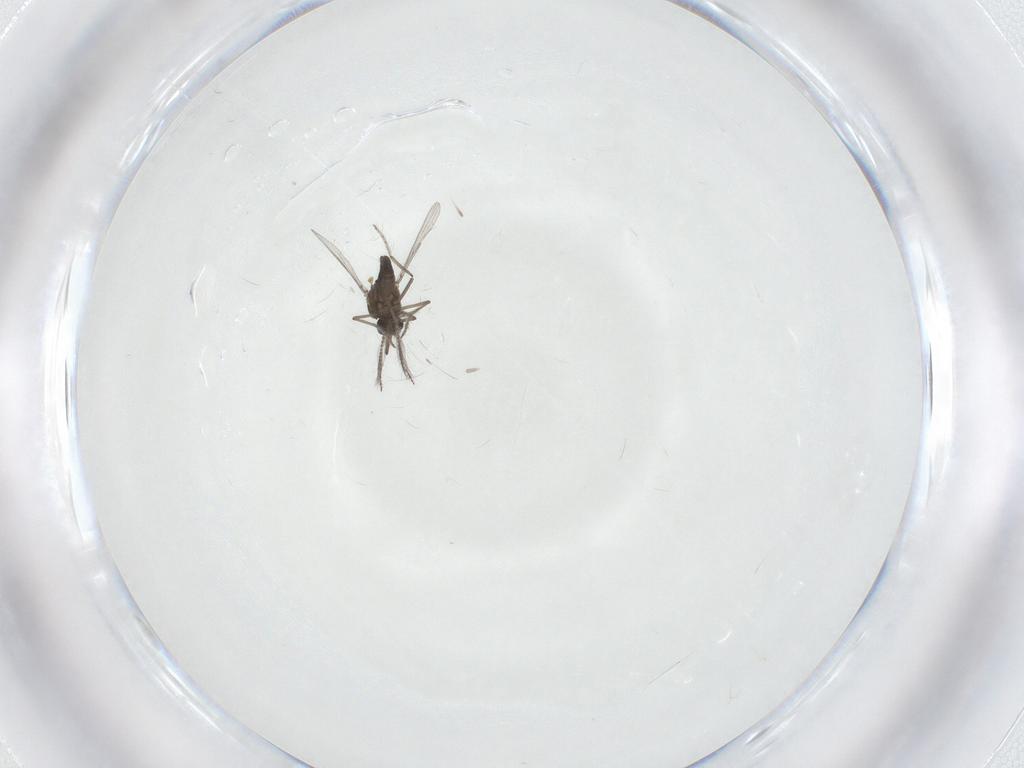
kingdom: Animalia
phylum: Arthropoda
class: Insecta
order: Diptera
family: Ceratopogonidae
